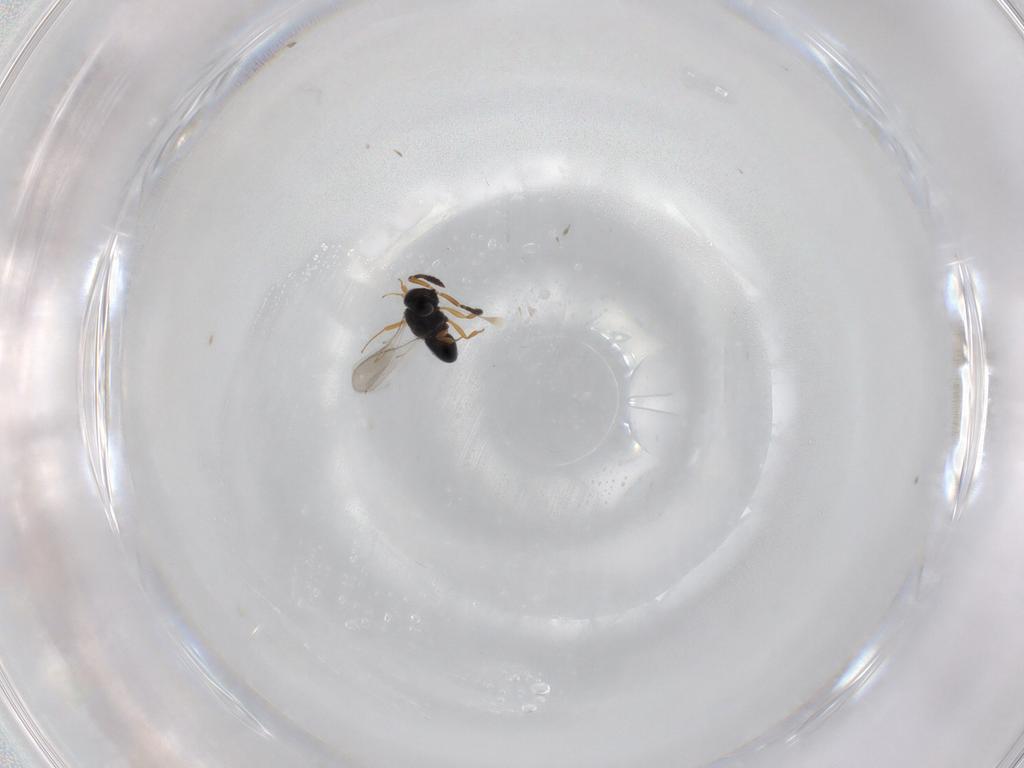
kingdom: Animalia
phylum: Arthropoda
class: Insecta
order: Hymenoptera
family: Scelionidae
